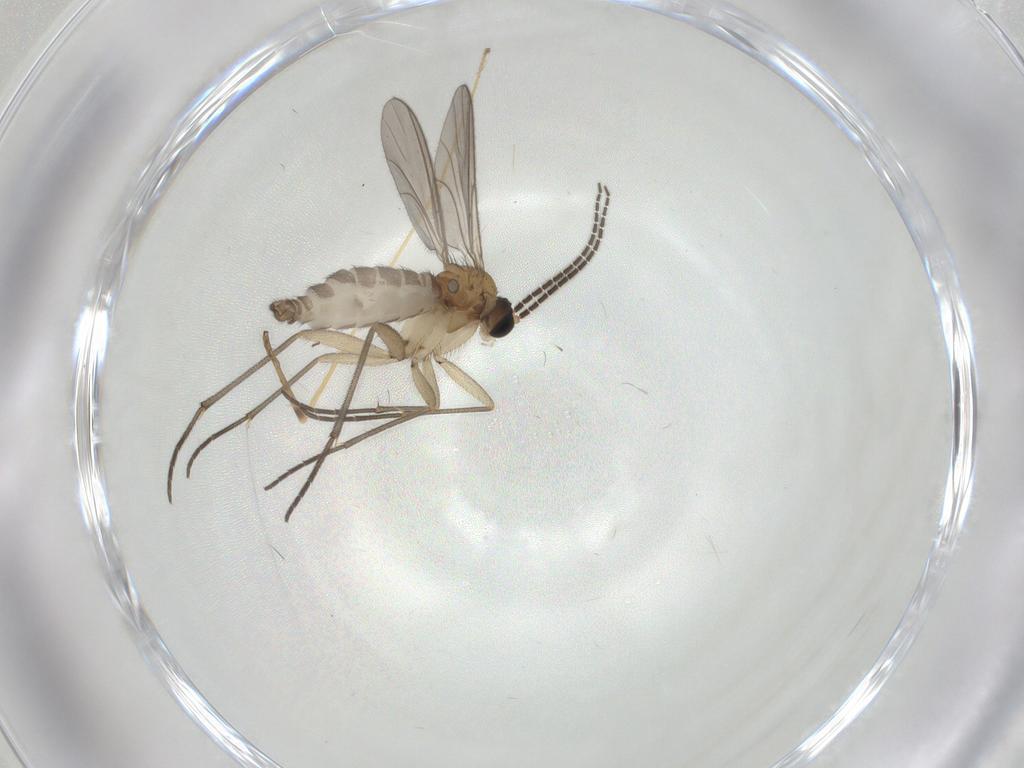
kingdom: Animalia
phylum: Arthropoda
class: Insecta
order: Diptera
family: Sciaridae
